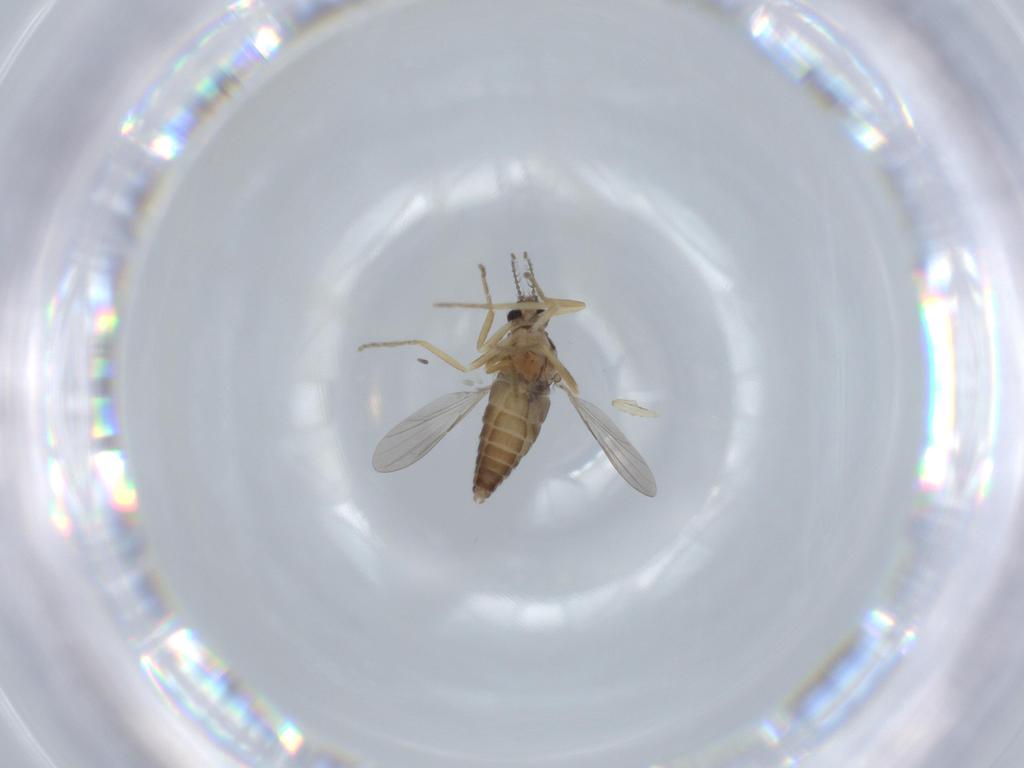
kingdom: Animalia
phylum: Arthropoda
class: Insecta
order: Diptera
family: Ceratopogonidae
